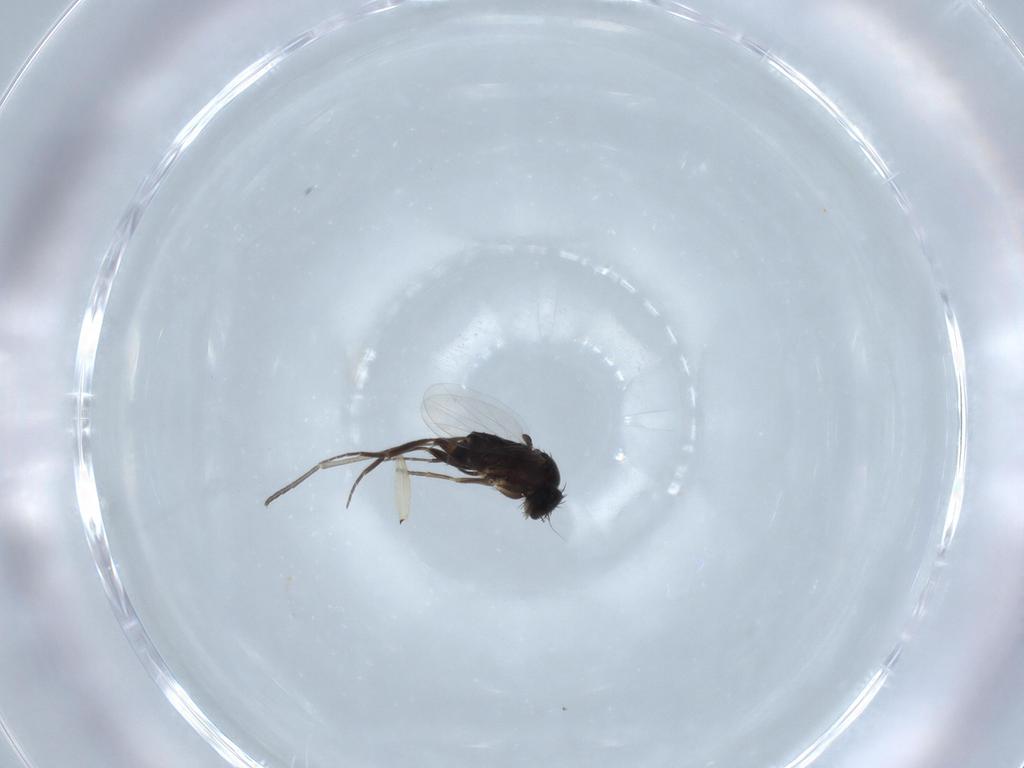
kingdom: Animalia
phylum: Arthropoda
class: Insecta
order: Diptera
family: Phoridae
